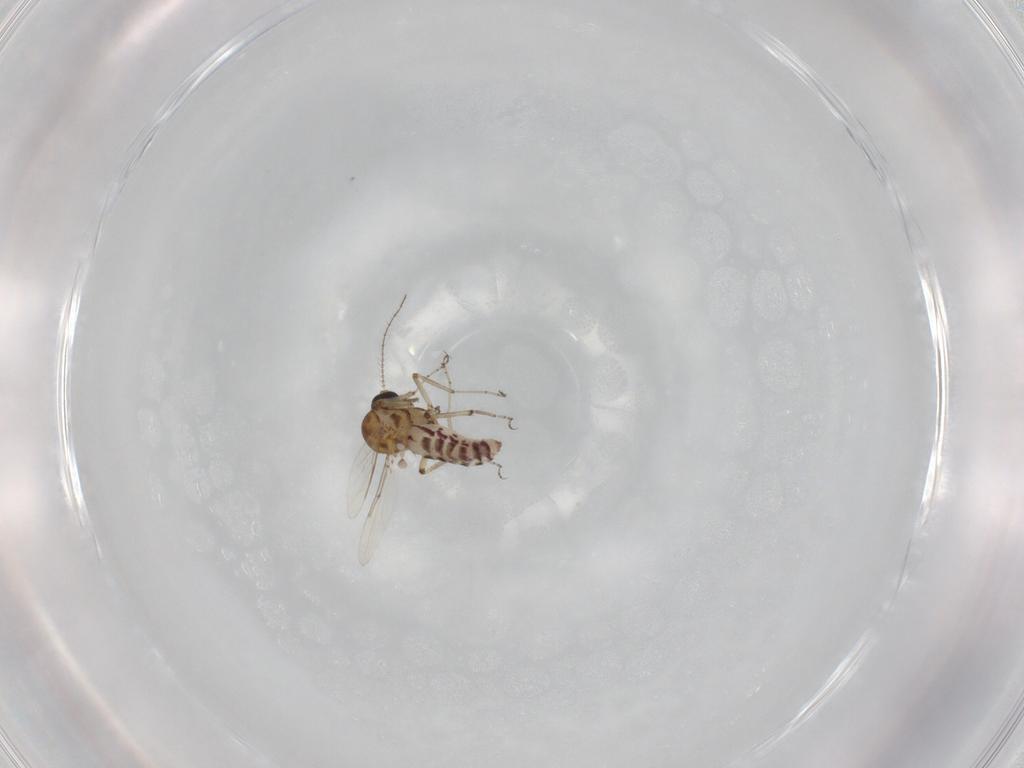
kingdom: Animalia
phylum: Arthropoda
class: Insecta
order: Diptera
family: Ceratopogonidae
